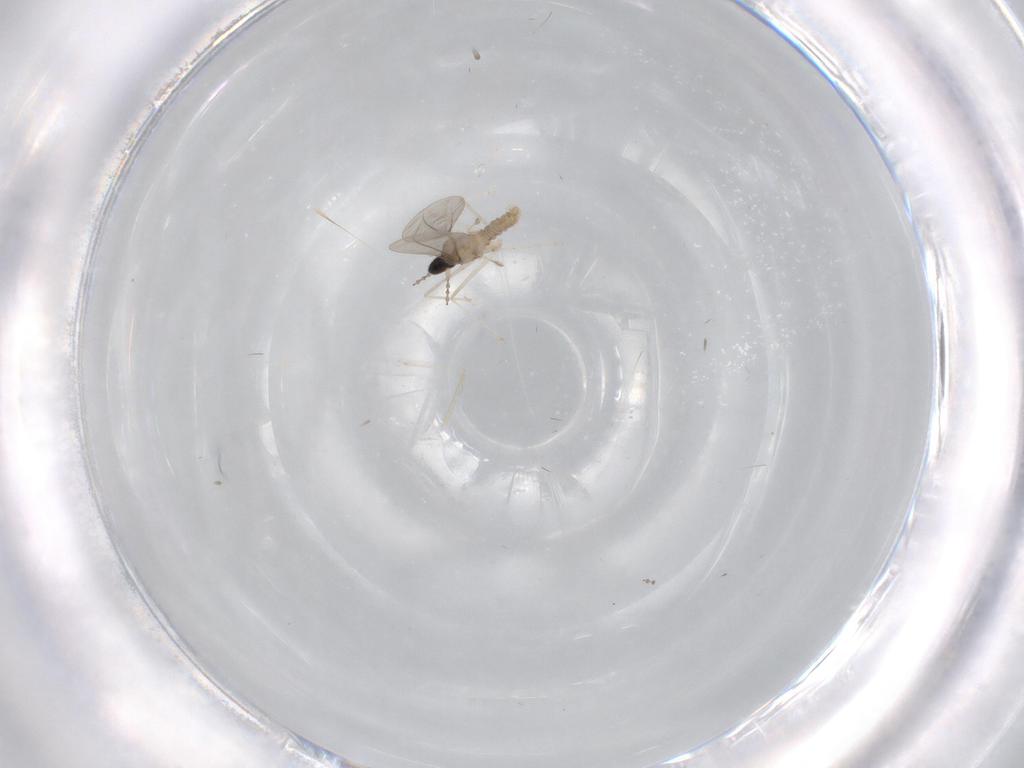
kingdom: Animalia
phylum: Arthropoda
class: Insecta
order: Diptera
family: Cecidomyiidae
